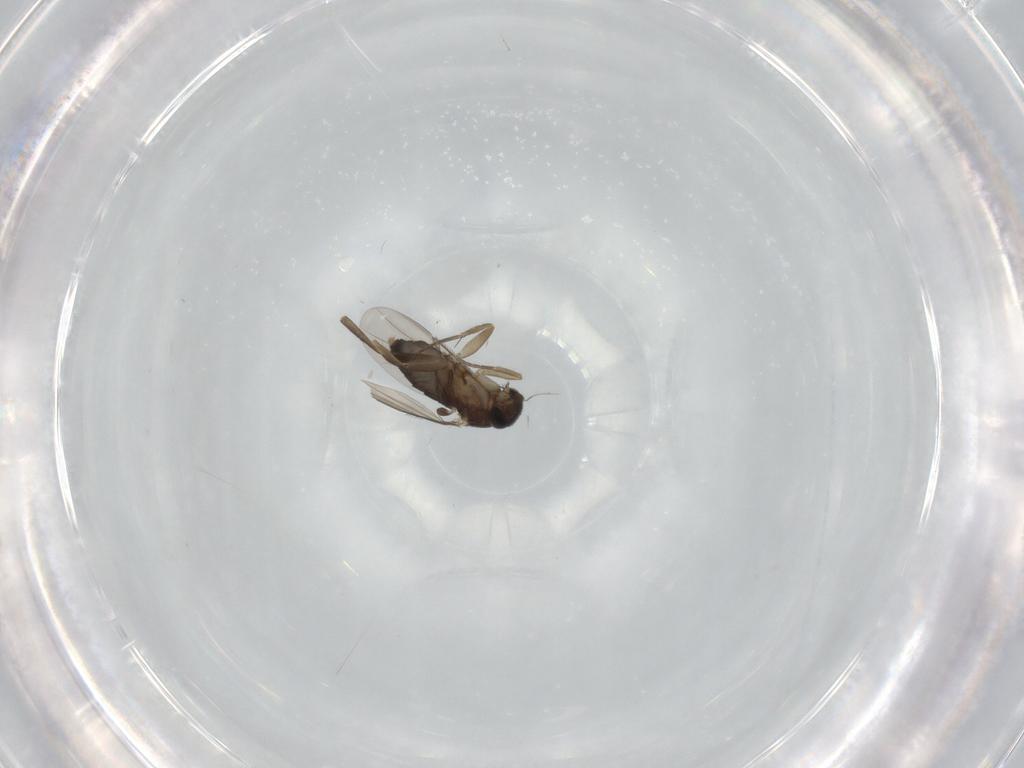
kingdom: Animalia
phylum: Arthropoda
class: Insecta
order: Diptera
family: Phoridae
